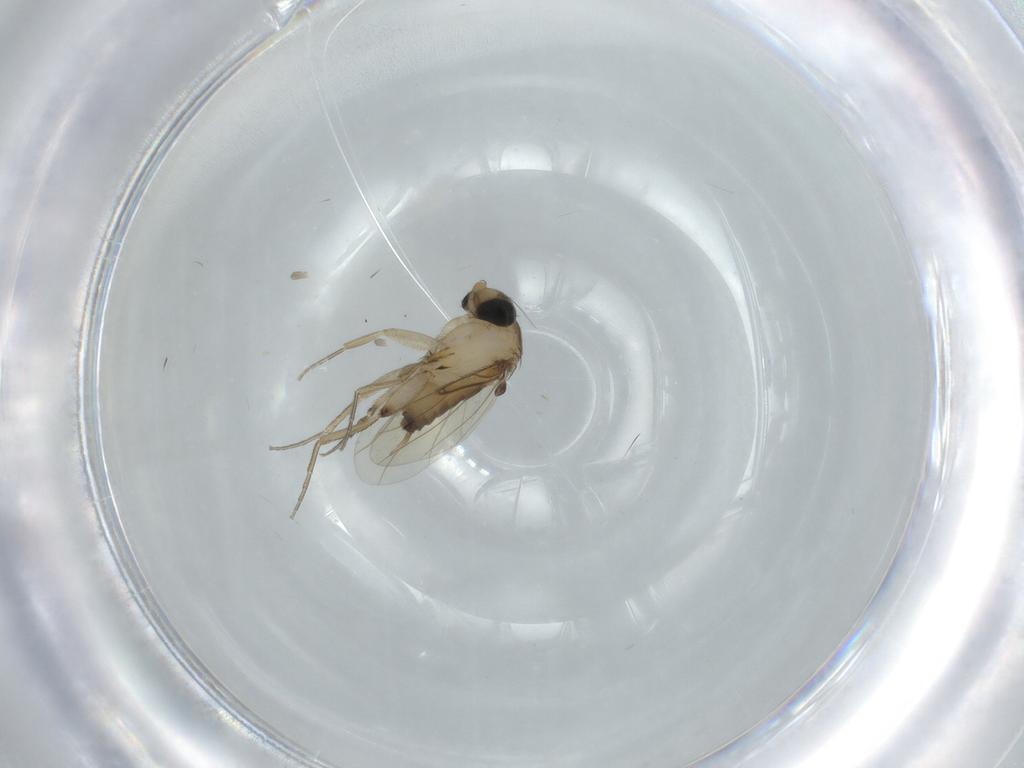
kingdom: Animalia
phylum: Arthropoda
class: Insecta
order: Diptera
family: Phoridae
